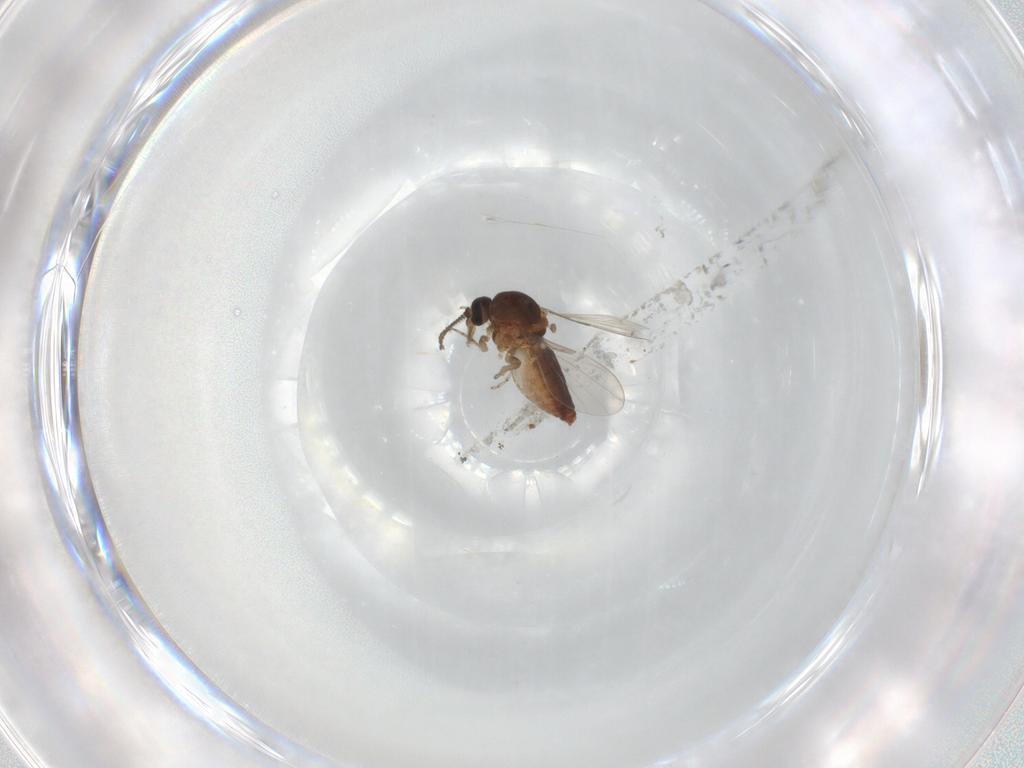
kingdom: Animalia
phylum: Arthropoda
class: Insecta
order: Diptera
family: Ceratopogonidae
